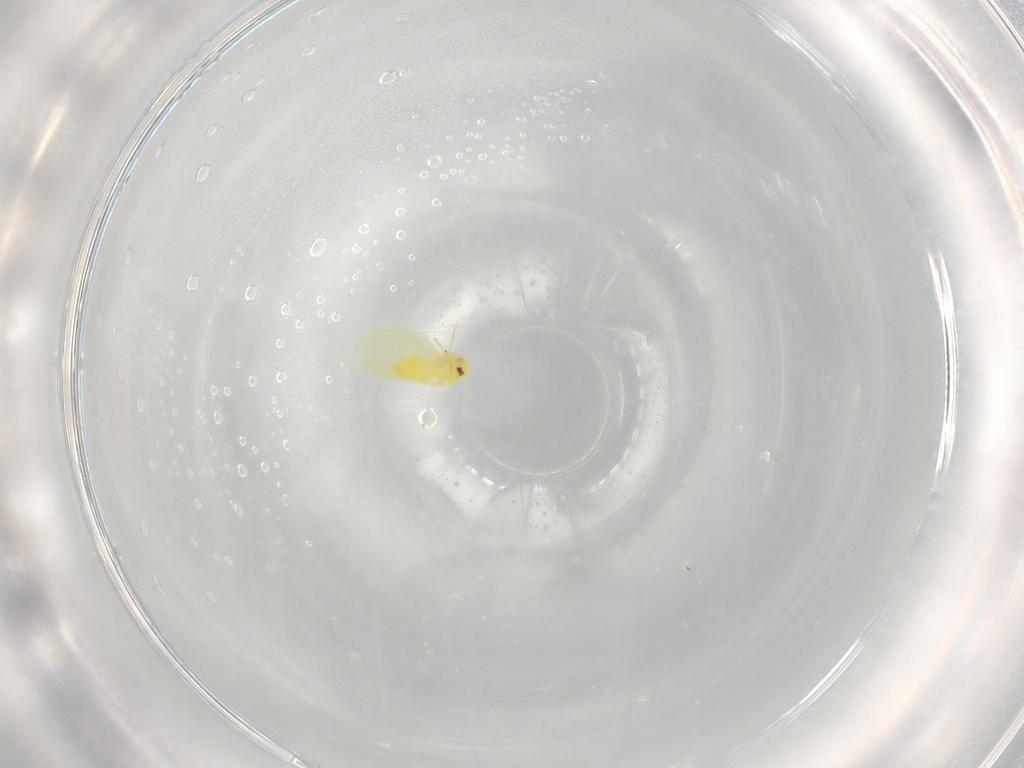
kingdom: Animalia
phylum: Arthropoda
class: Insecta
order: Hemiptera
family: Aleyrodidae
